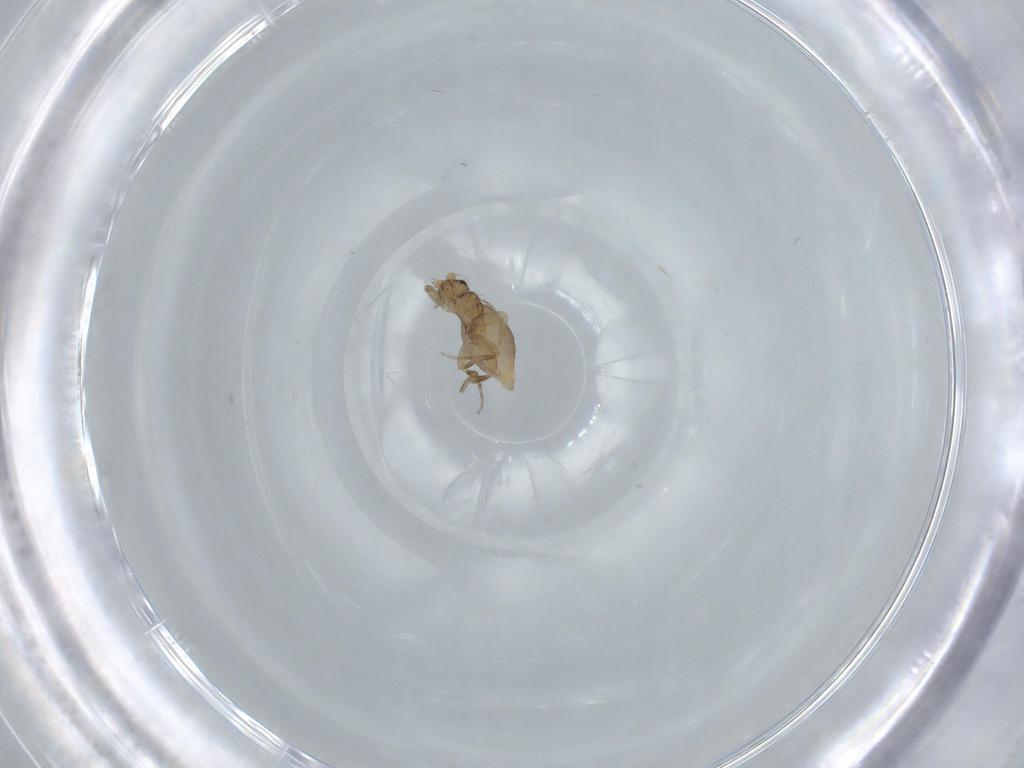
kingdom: Animalia
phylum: Arthropoda
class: Insecta
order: Diptera
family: Phoridae
